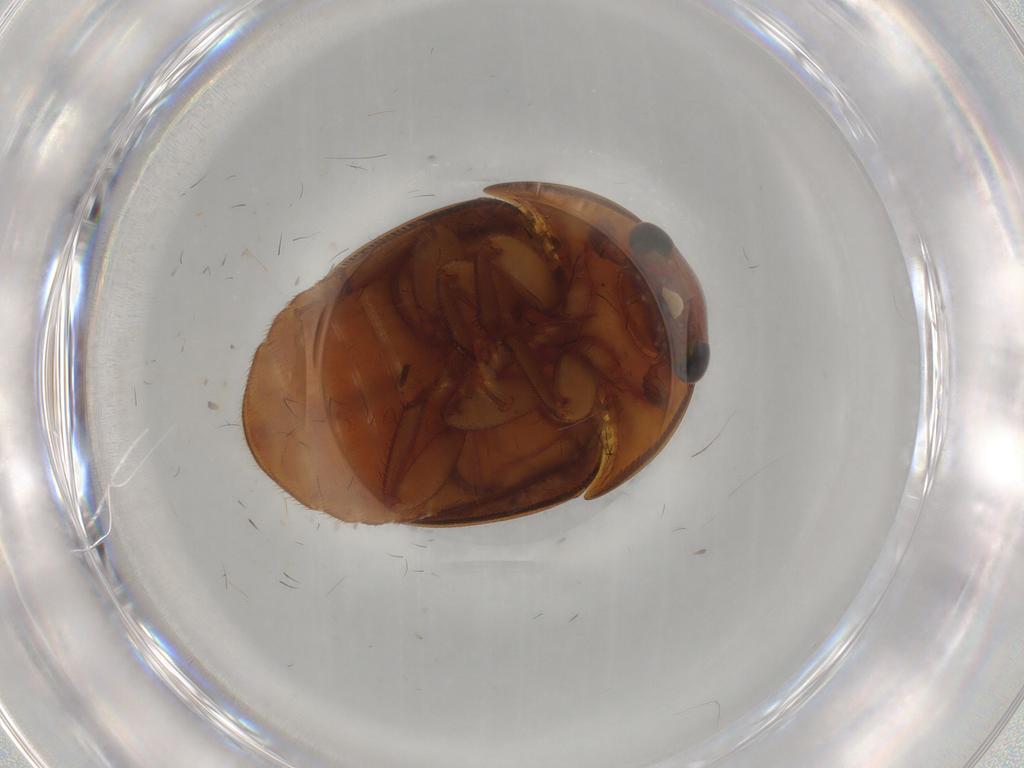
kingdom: Animalia
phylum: Arthropoda
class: Insecta
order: Coleoptera
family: Nitidulidae
